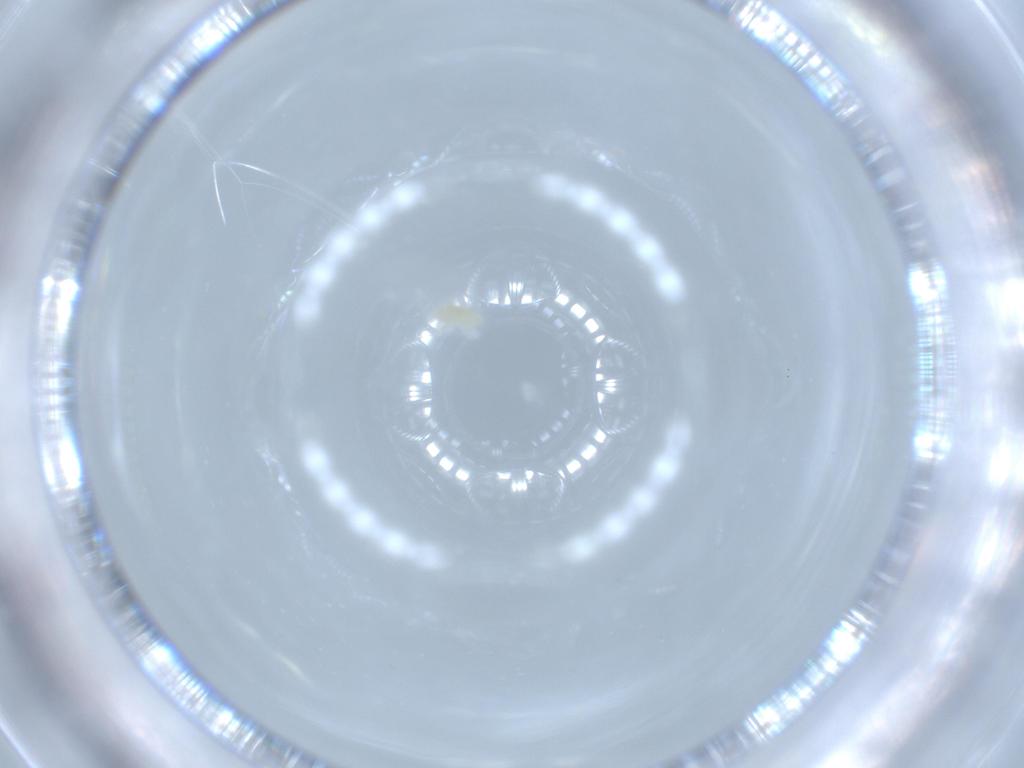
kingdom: Animalia
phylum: Arthropoda
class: Arachnida
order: Trombidiformes
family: Eupodidae
